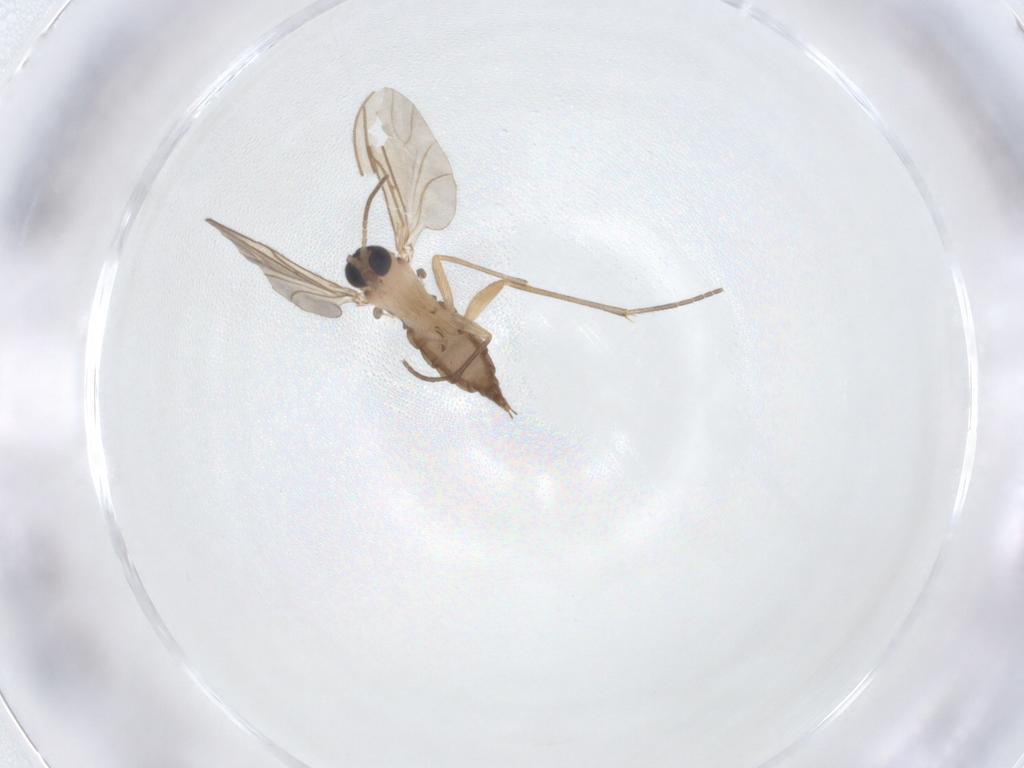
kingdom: Animalia
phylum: Arthropoda
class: Insecta
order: Diptera
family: Sciaridae
